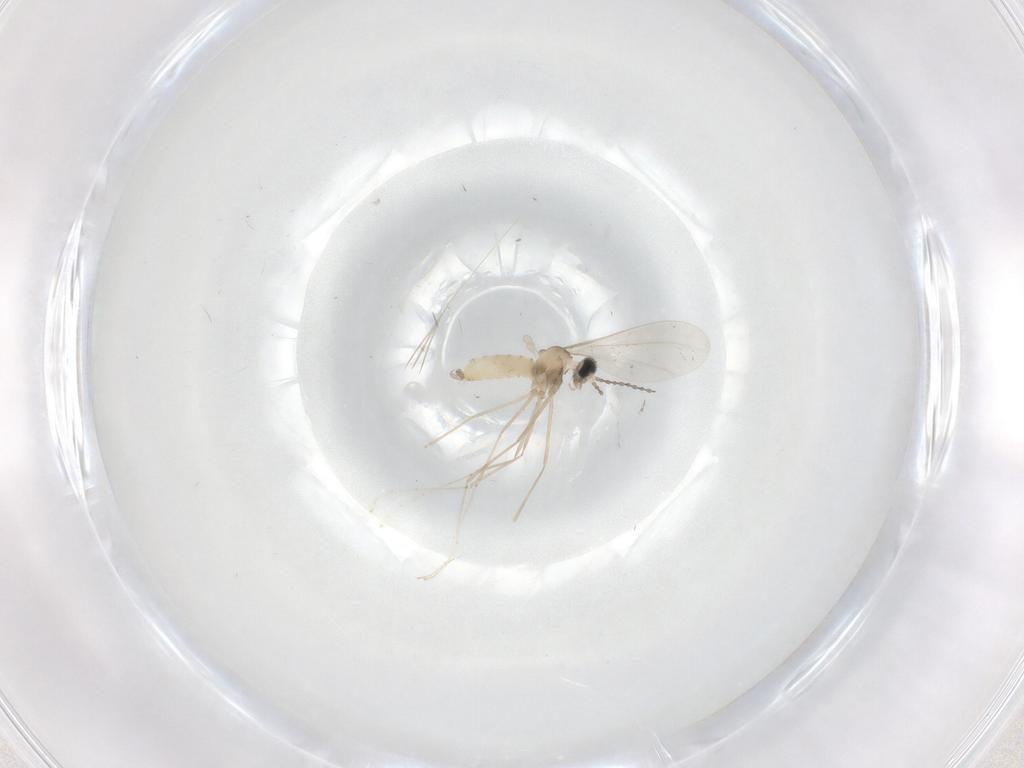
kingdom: Animalia
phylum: Arthropoda
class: Insecta
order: Diptera
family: Cecidomyiidae
